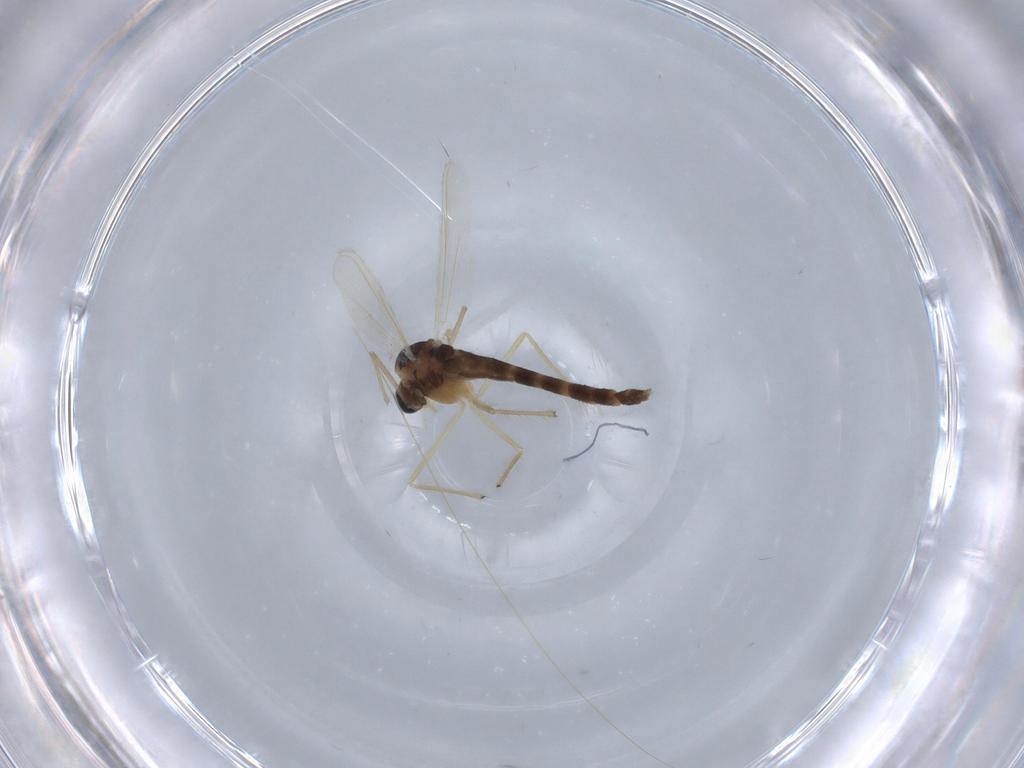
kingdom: Animalia
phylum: Arthropoda
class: Insecta
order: Diptera
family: Chironomidae
